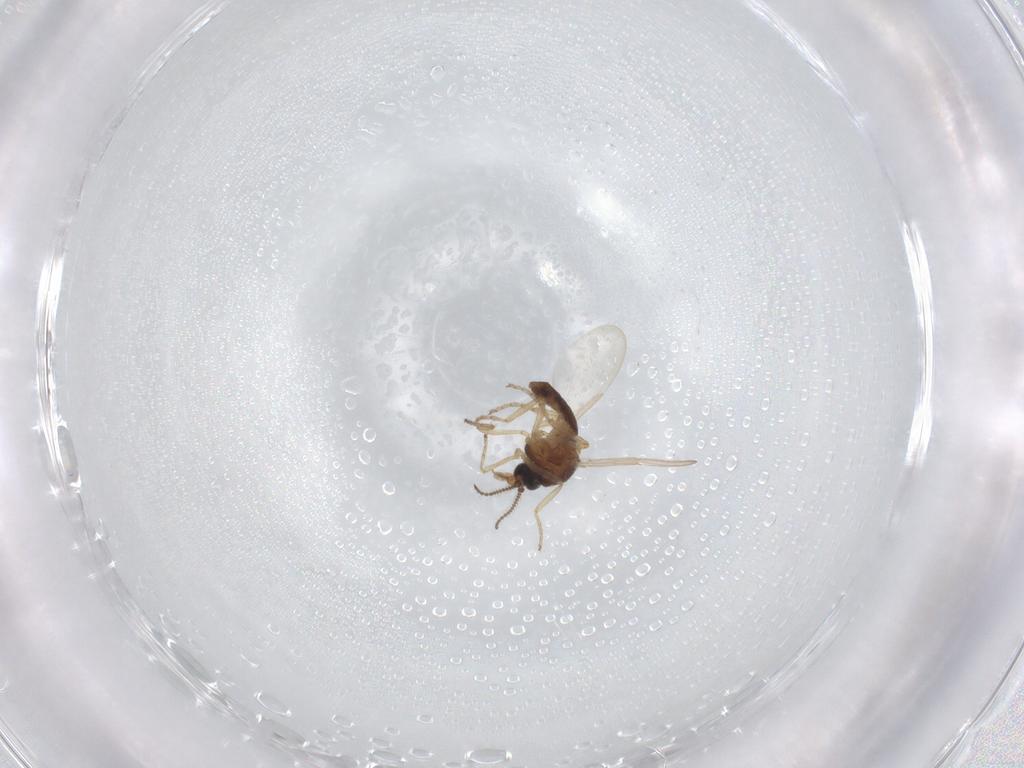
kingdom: Animalia
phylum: Arthropoda
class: Insecta
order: Diptera
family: Ceratopogonidae
